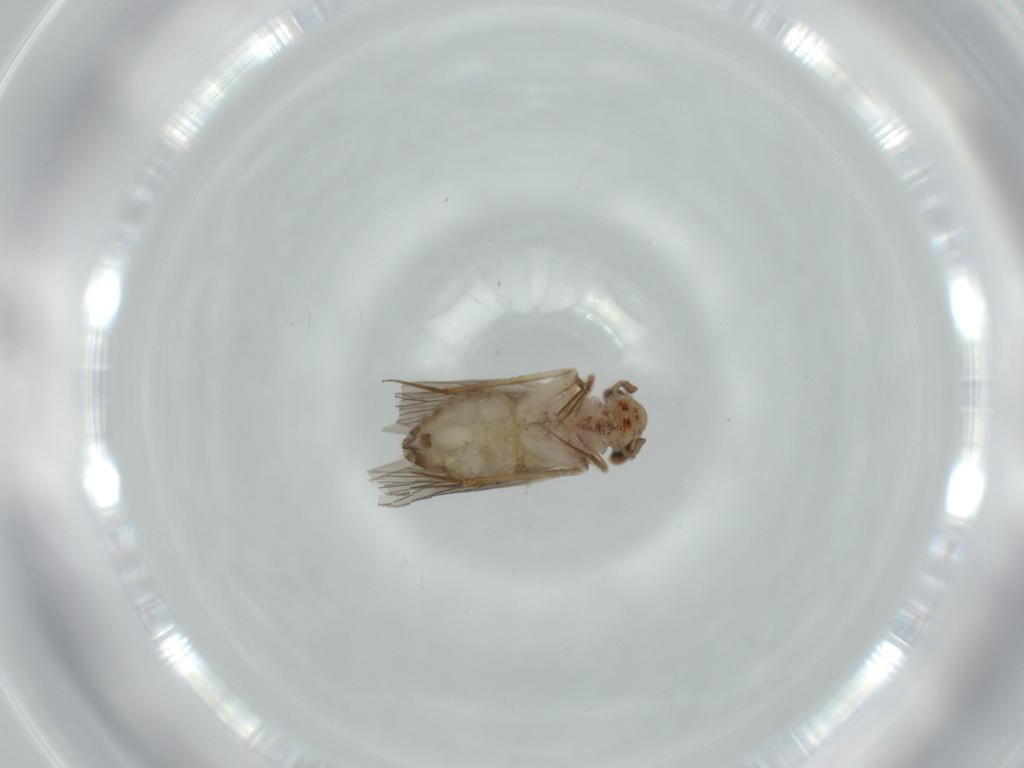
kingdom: Animalia
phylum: Arthropoda
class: Insecta
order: Psocodea
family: Lepidopsocidae
